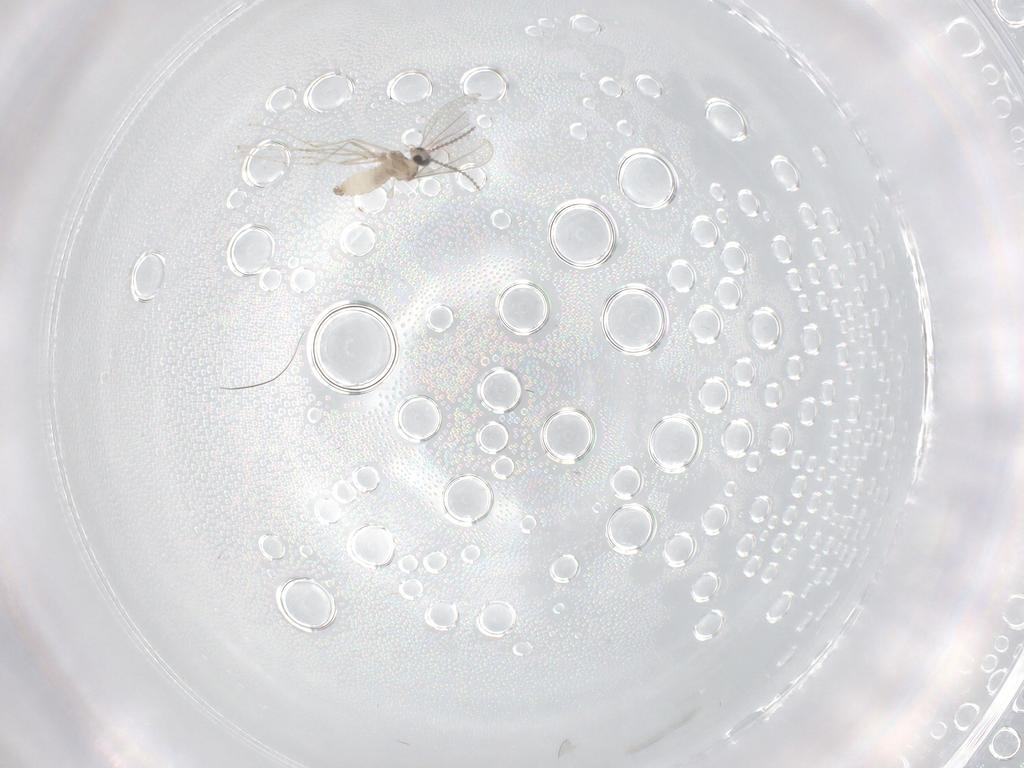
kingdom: Animalia
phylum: Arthropoda
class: Insecta
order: Diptera
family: Cecidomyiidae
